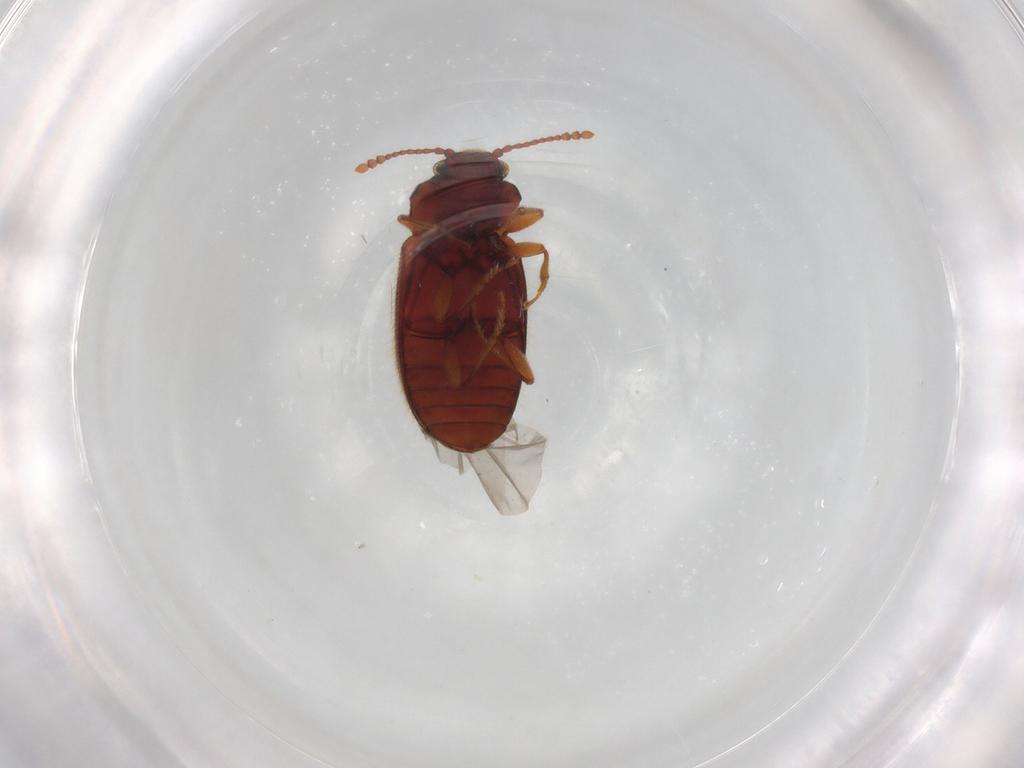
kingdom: Animalia
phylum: Arthropoda
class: Insecta
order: Coleoptera
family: Cryptophagidae
